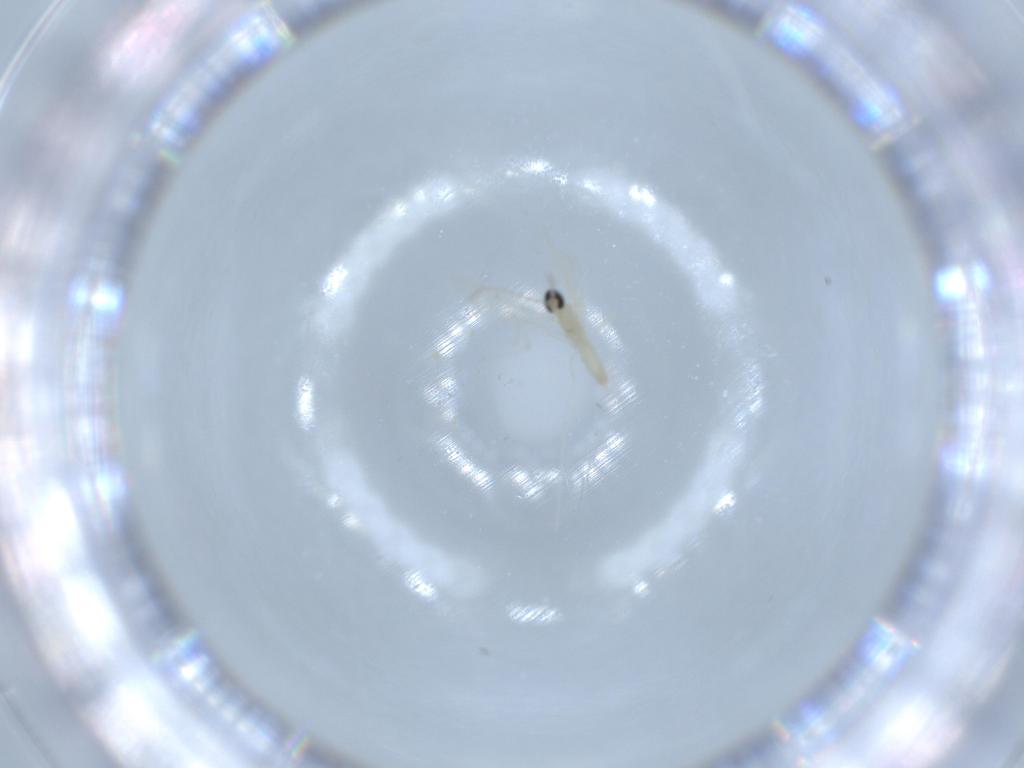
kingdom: Animalia
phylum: Arthropoda
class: Insecta
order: Diptera
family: Cecidomyiidae
